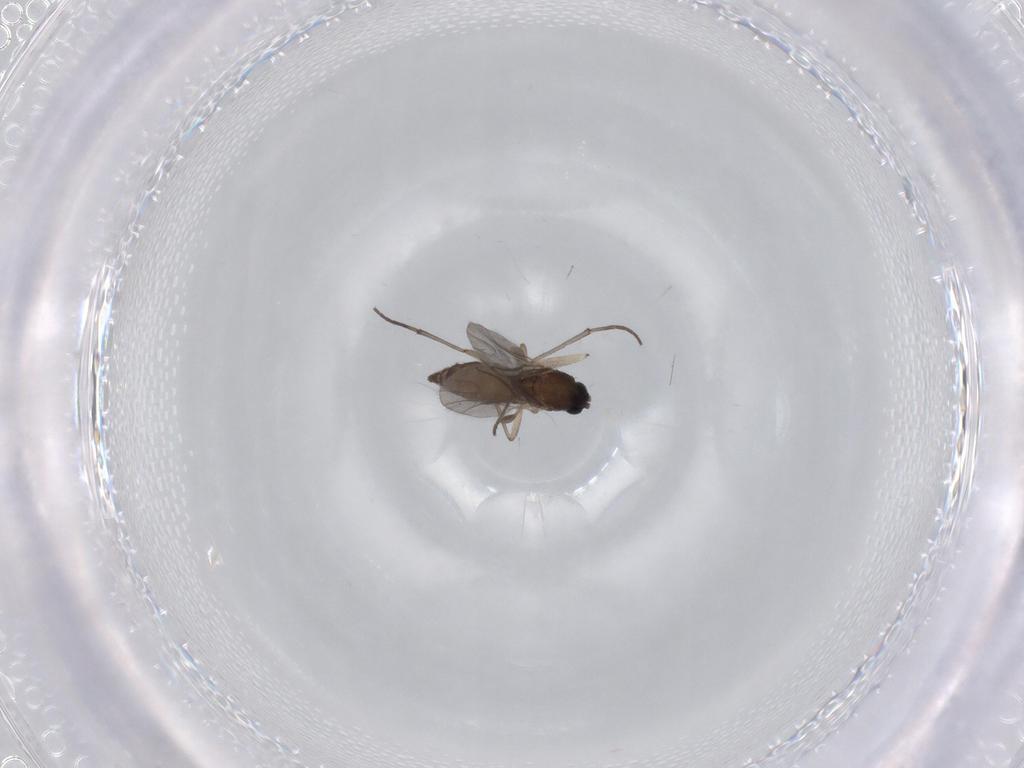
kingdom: Animalia
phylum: Arthropoda
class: Insecta
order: Diptera
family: Sciaridae
